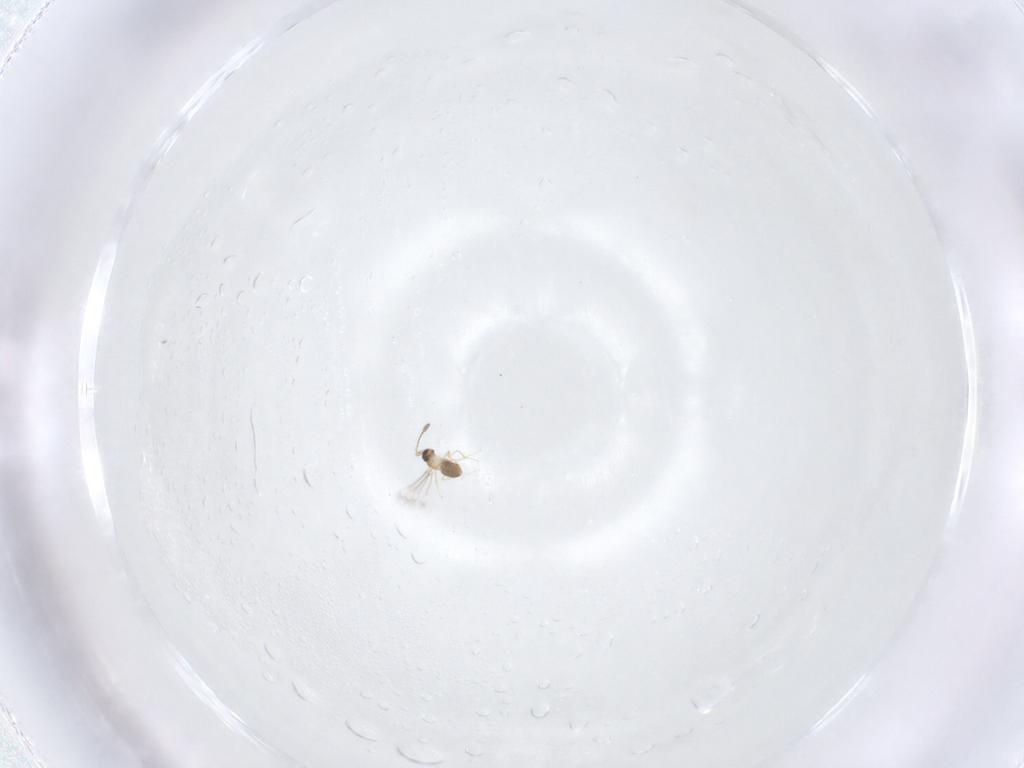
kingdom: Animalia
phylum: Arthropoda
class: Insecta
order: Hymenoptera
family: Mymaridae
